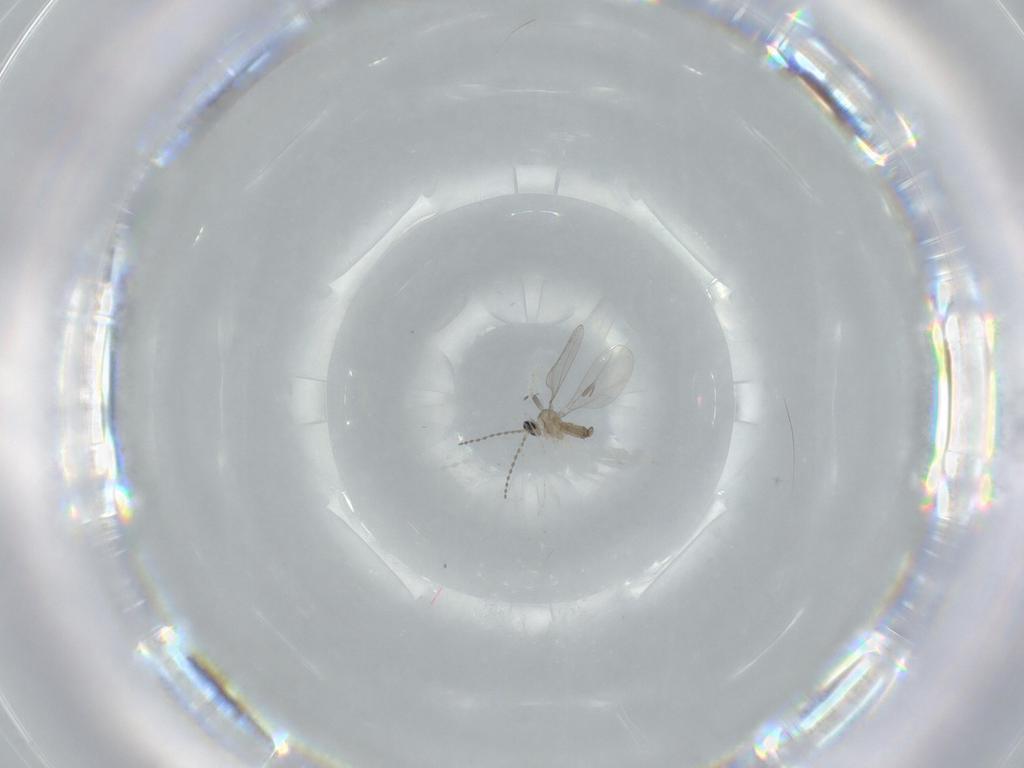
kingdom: Animalia
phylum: Arthropoda
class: Insecta
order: Diptera
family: Cecidomyiidae
